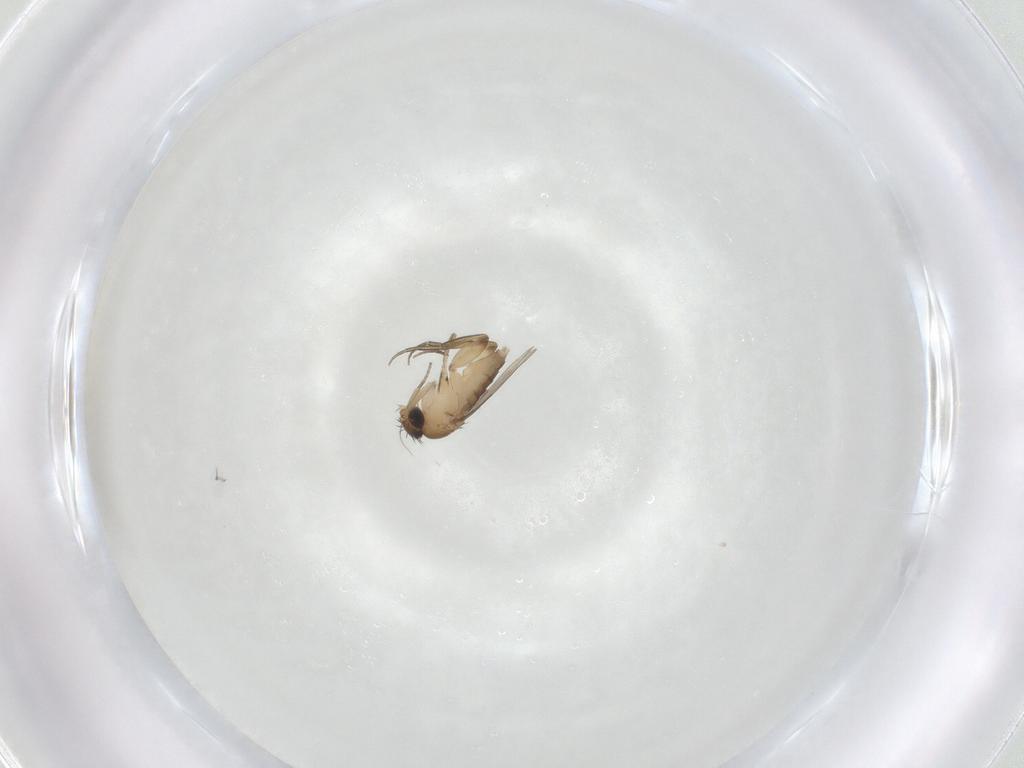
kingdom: Animalia
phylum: Arthropoda
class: Insecta
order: Diptera
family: Phoridae
